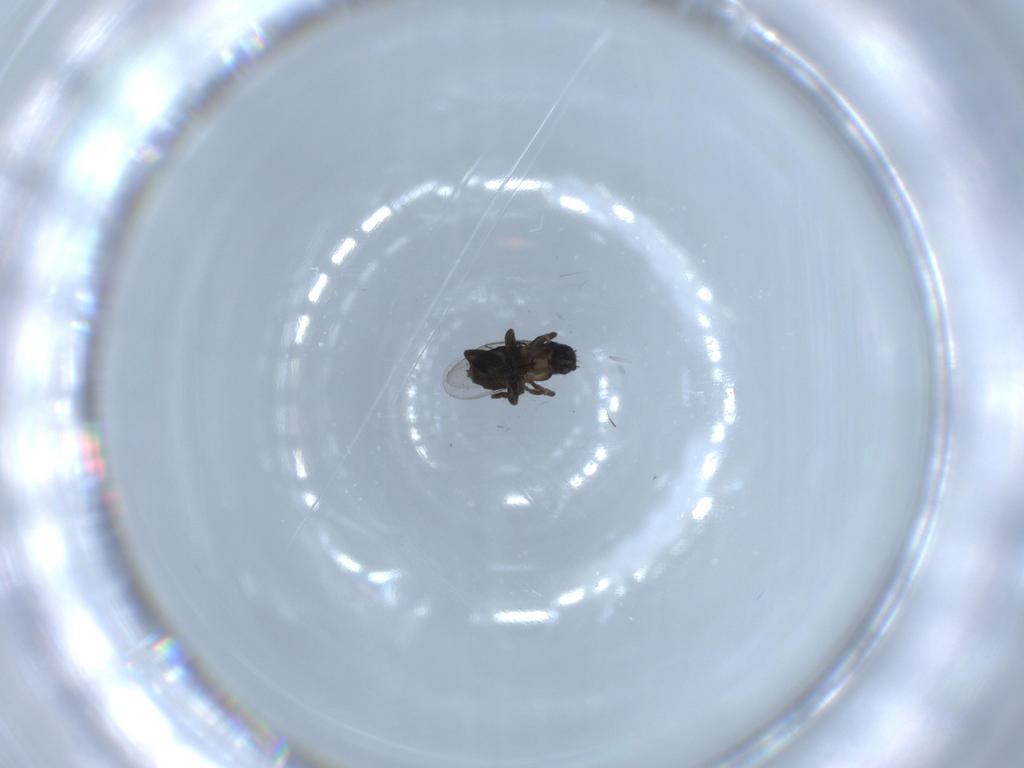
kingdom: Animalia
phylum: Arthropoda
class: Insecta
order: Diptera
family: Phoridae
